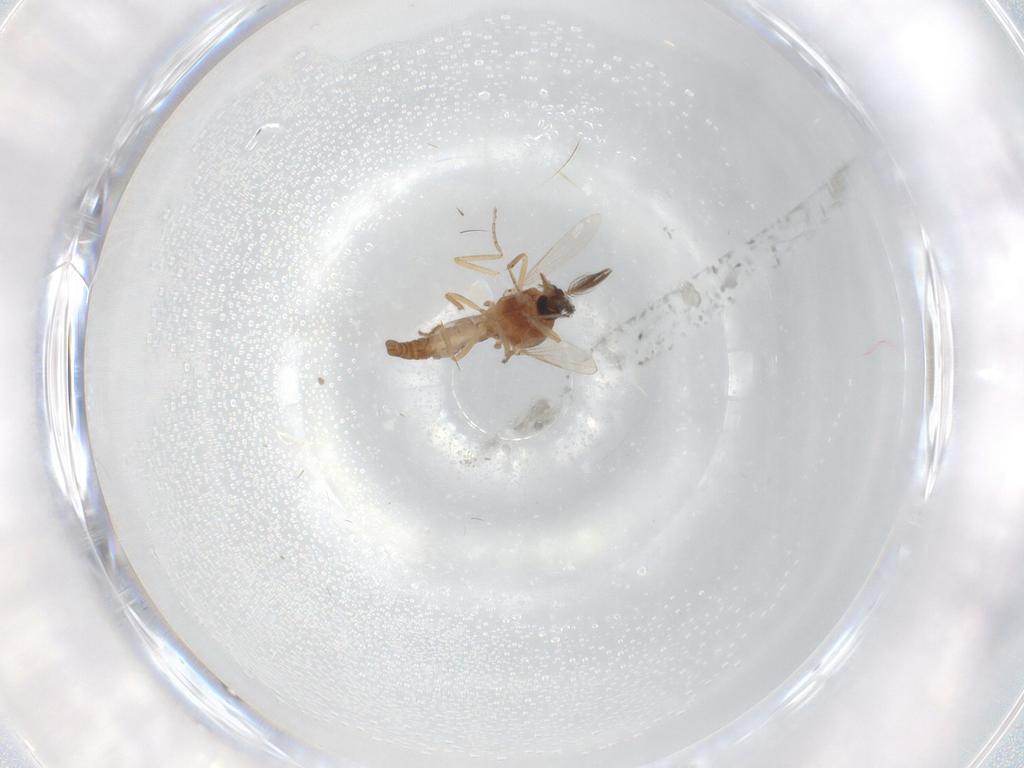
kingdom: Animalia
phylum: Arthropoda
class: Insecta
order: Diptera
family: Ceratopogonidae
